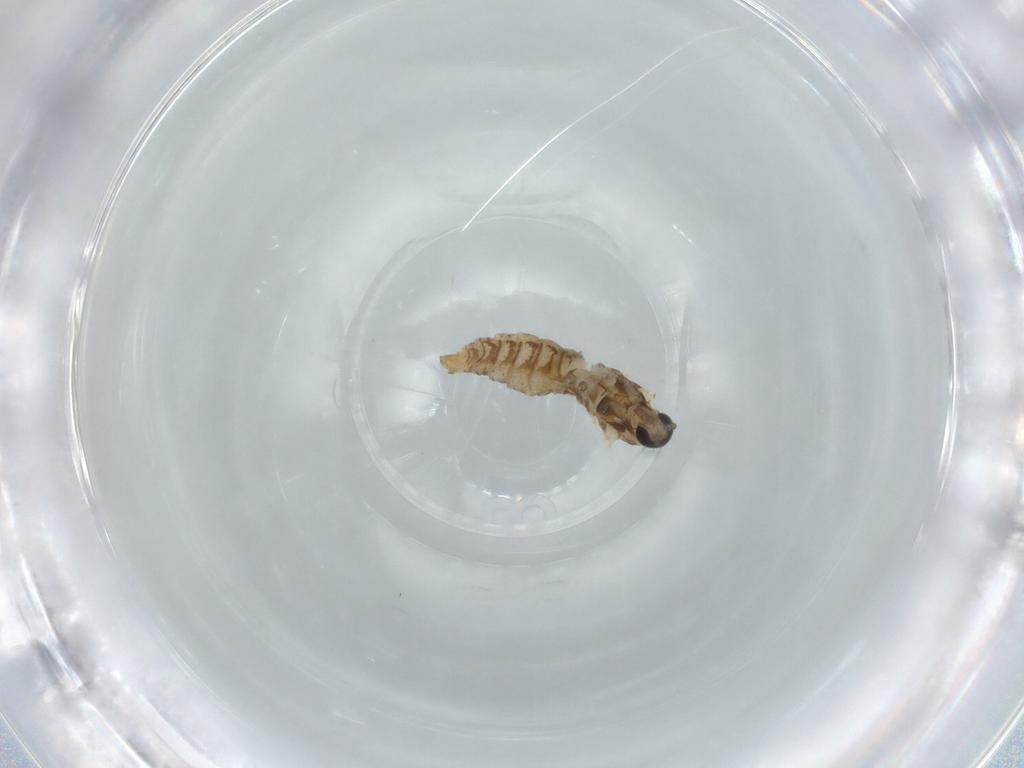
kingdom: Animalia
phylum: Arthropoda
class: Insecta
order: Diptera
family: Cecidomyiidae
